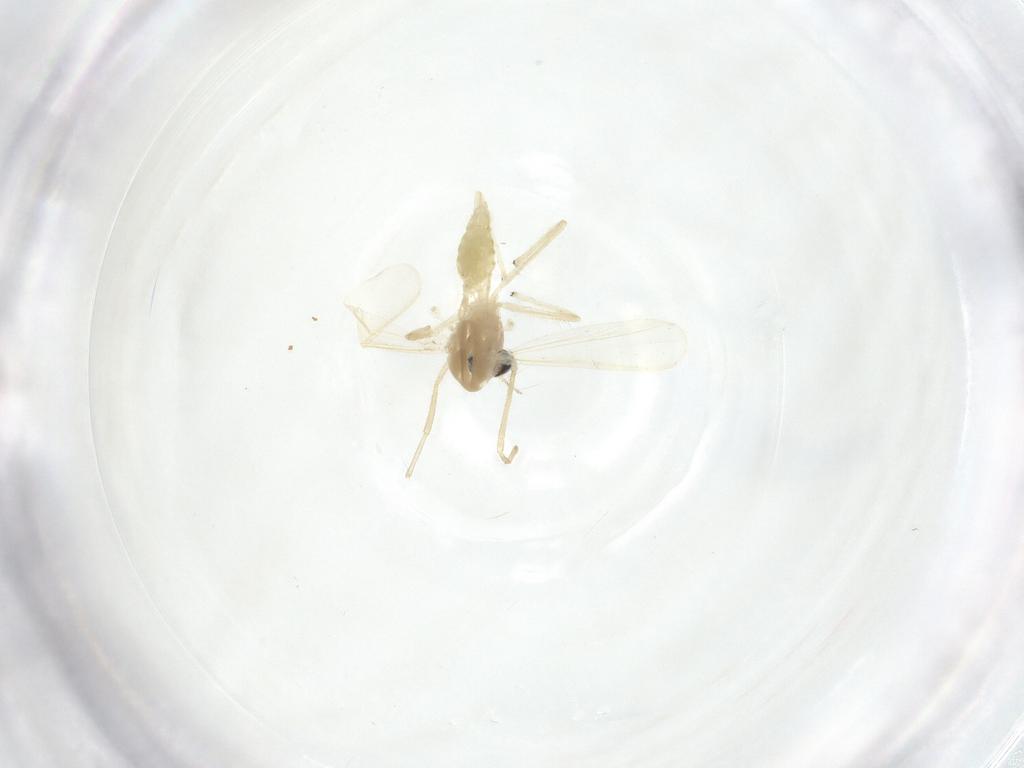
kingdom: Animalia
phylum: Arthropoda
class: Insecta
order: Diptera
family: Chironomidae
